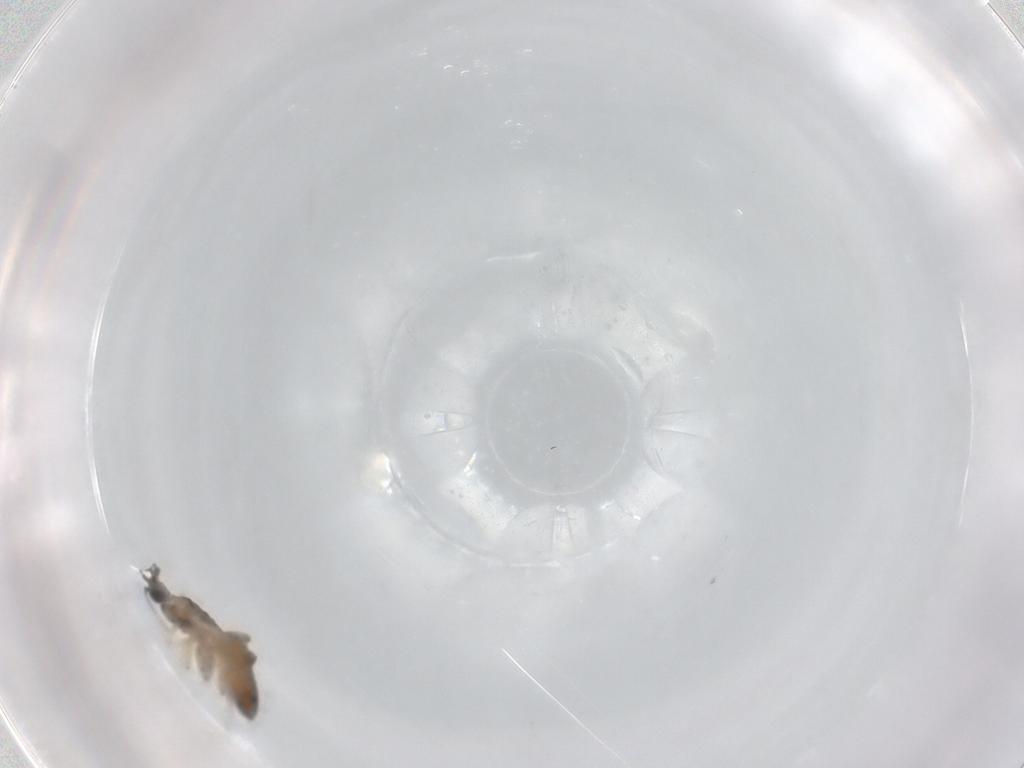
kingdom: Animalia
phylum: Arthropoda
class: Insecta
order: Diptera
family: Ceratopogonidae
